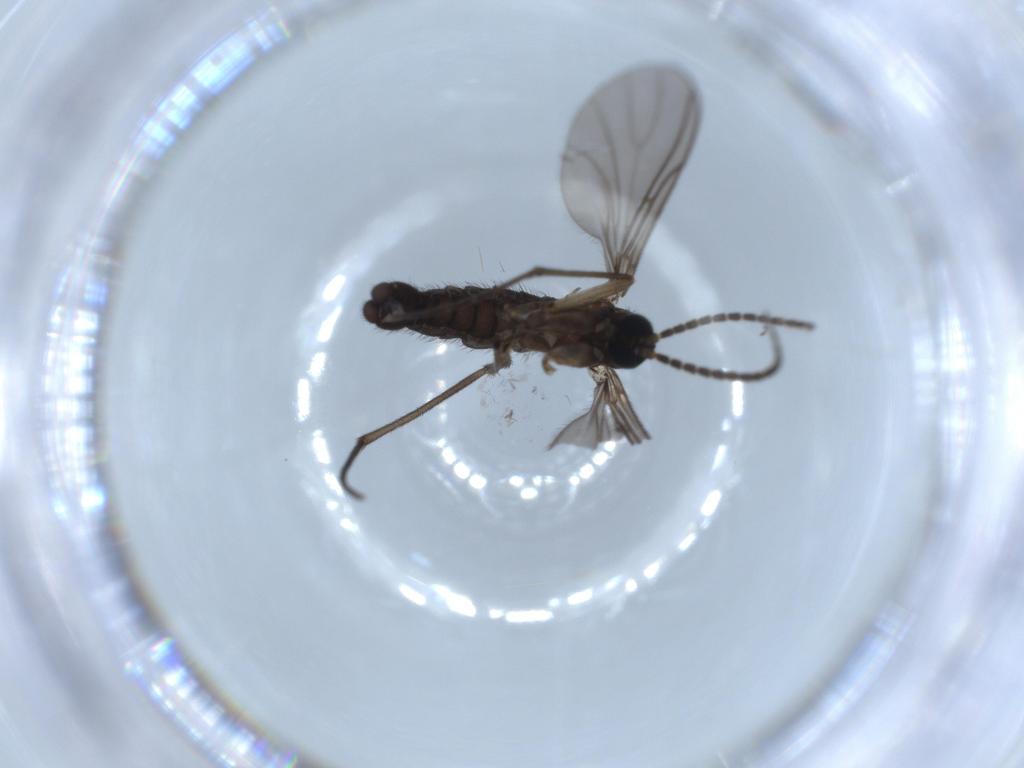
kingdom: Animalia
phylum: Arthropoda
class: Insecta
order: Diptera
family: Sciaridae
